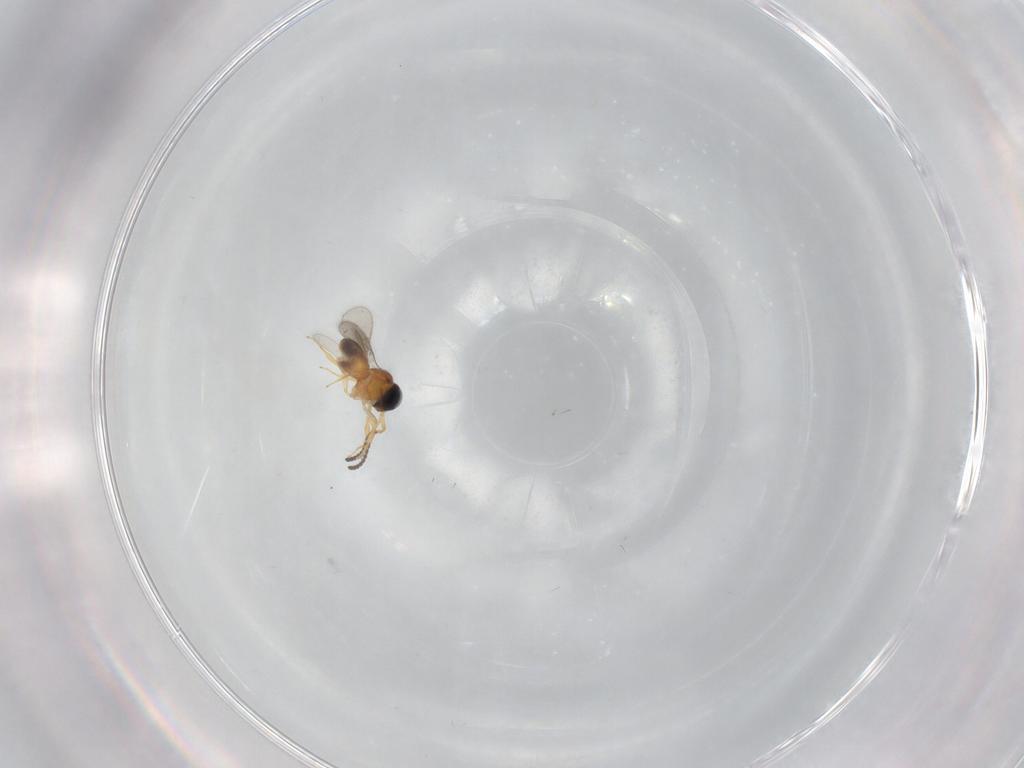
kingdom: Animalia
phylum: Arthropoda
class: Insecta
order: Hymenoptera
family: Scelionidae
